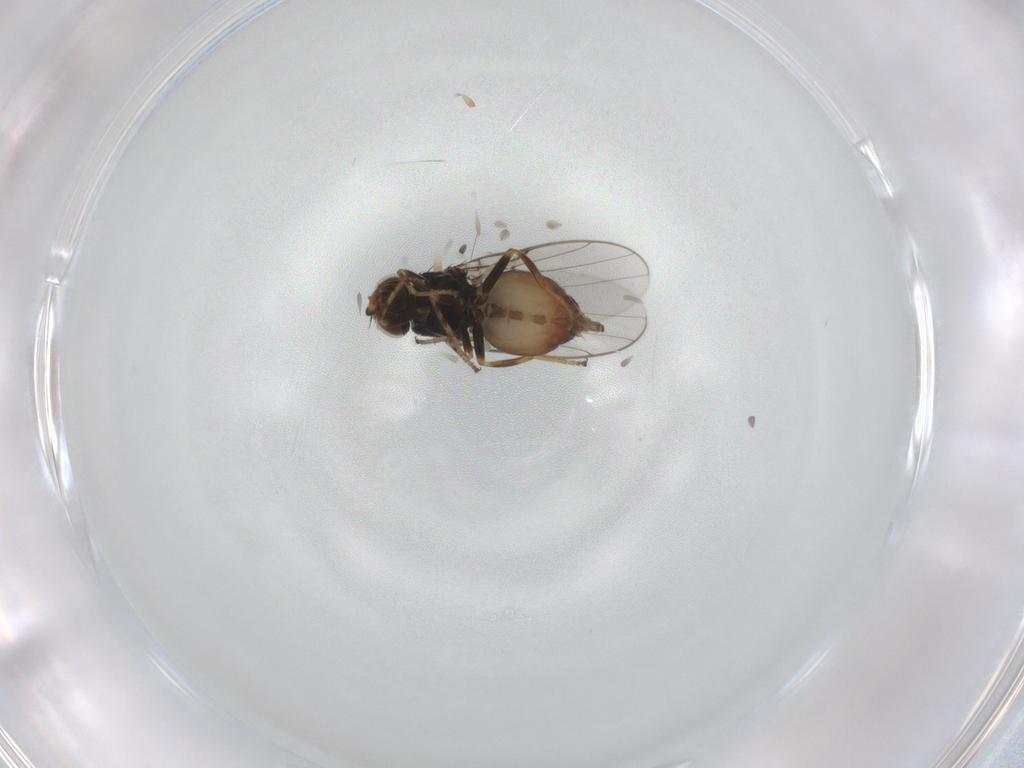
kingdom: Animalia
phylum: Arthropoda
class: Insecta
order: Diptera
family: Chloropidae
